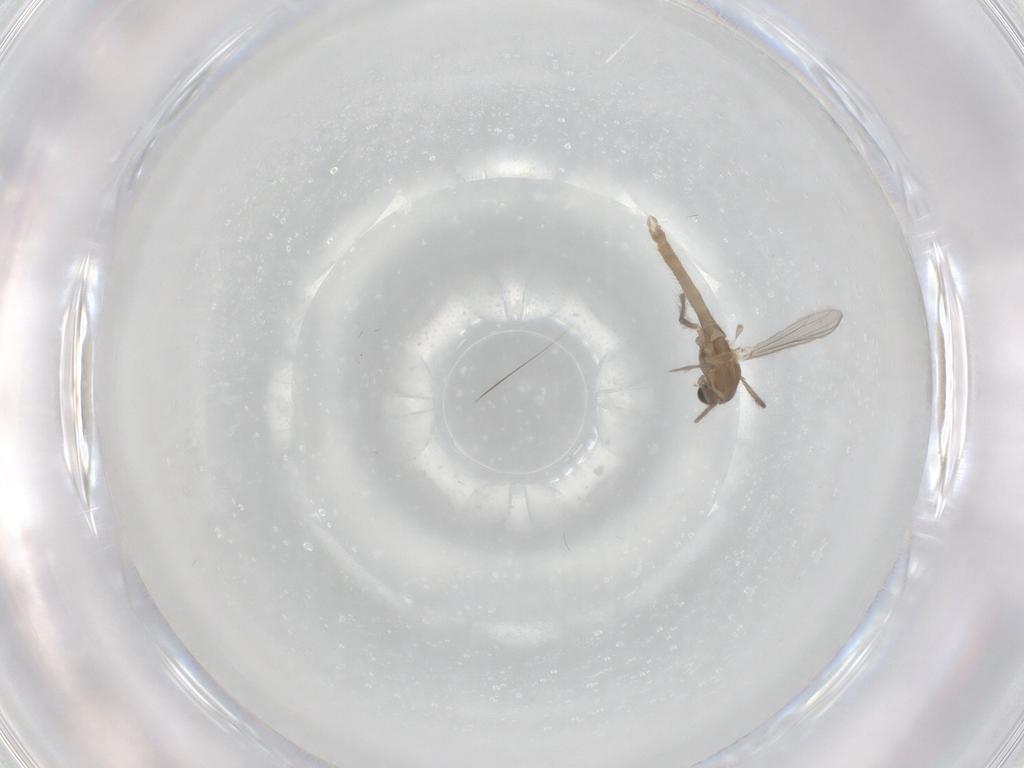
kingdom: Animalia
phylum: Arthropoda
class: Insecta
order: Diptera
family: Chironomidae
